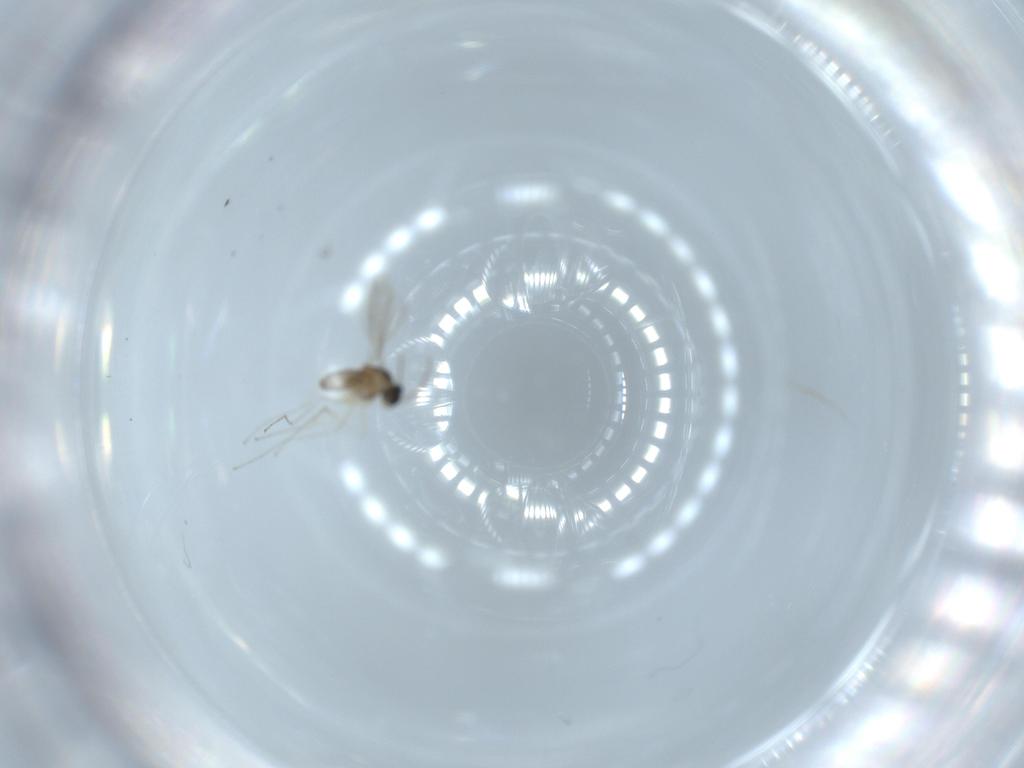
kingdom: Animalia
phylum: Arthropoda
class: Insecta
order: Diptera
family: Cecidomyiidae
